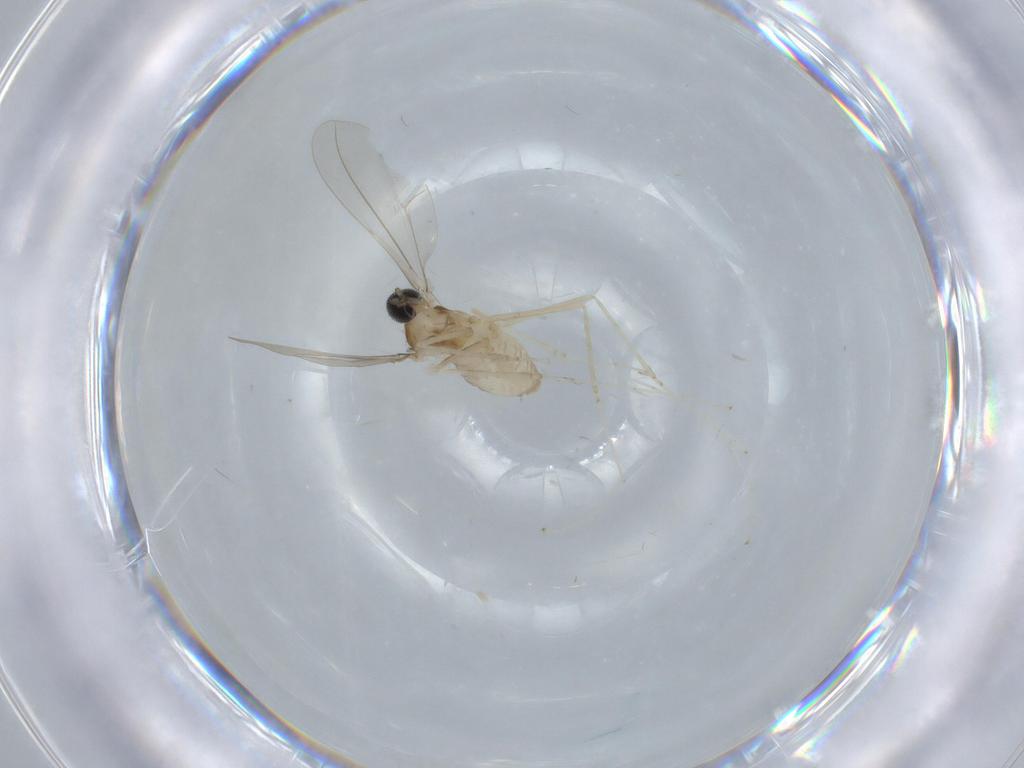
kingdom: Animalia
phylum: Arthropoda
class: Insecta
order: Diptera
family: Cecidomyiidae
